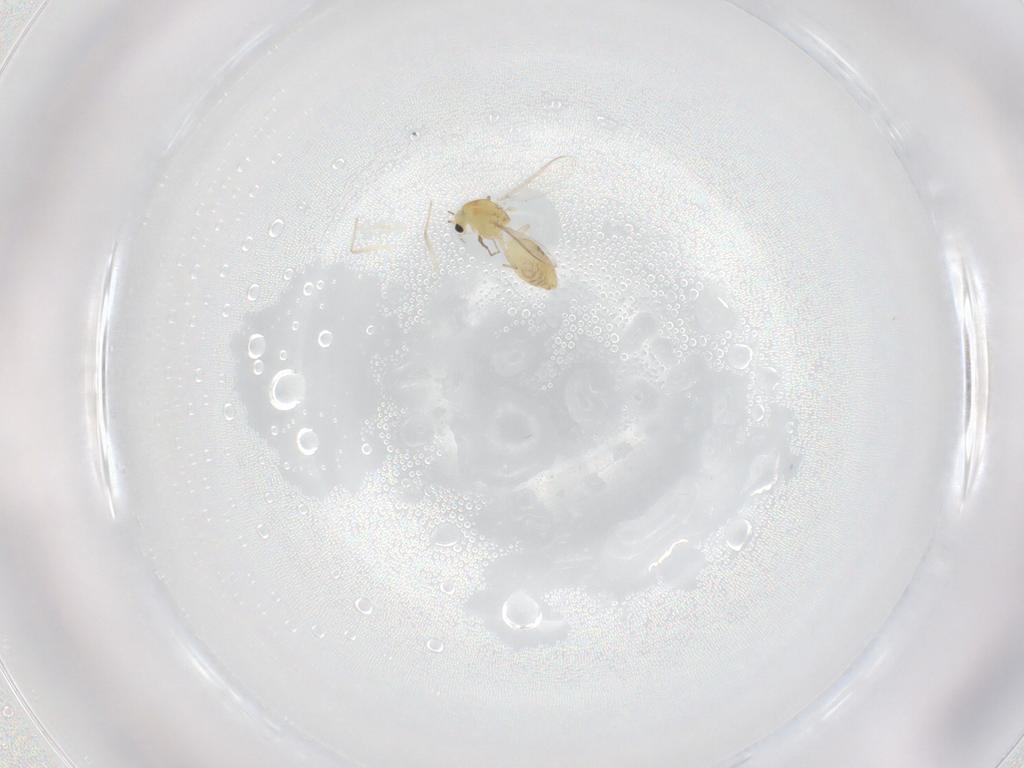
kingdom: Animalia
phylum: Arthropoda
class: Insecta
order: Diptera
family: Chironomidae
